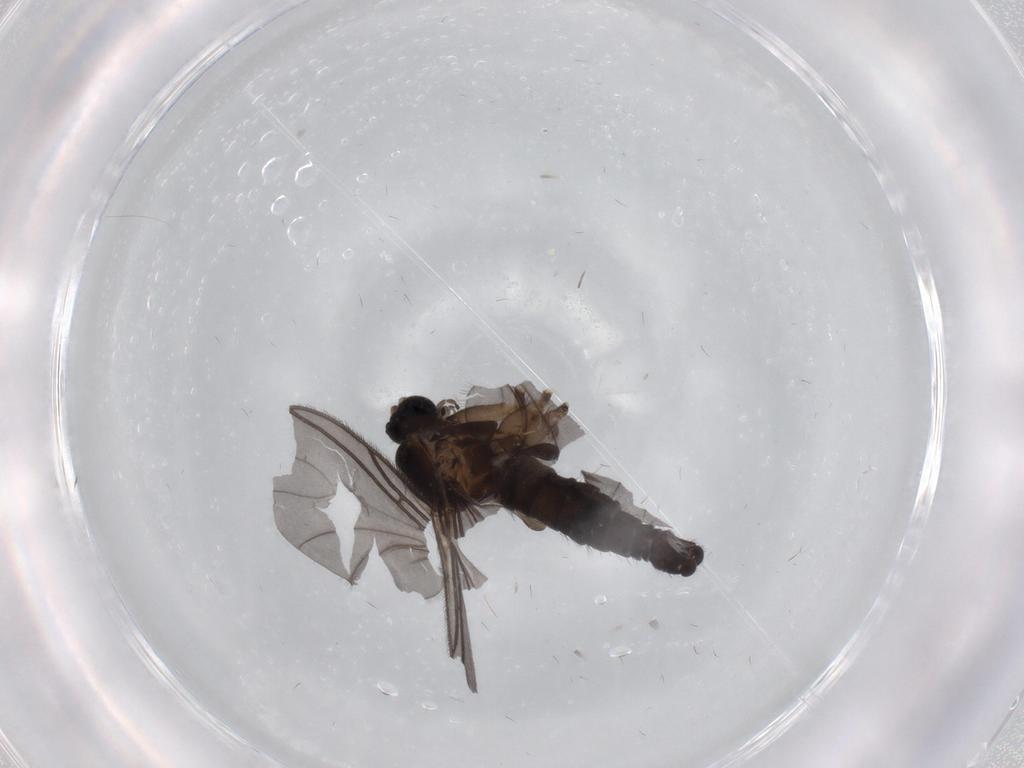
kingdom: Animalia
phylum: Arthropoda
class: Insecta
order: Diptera
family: Sciaridae
